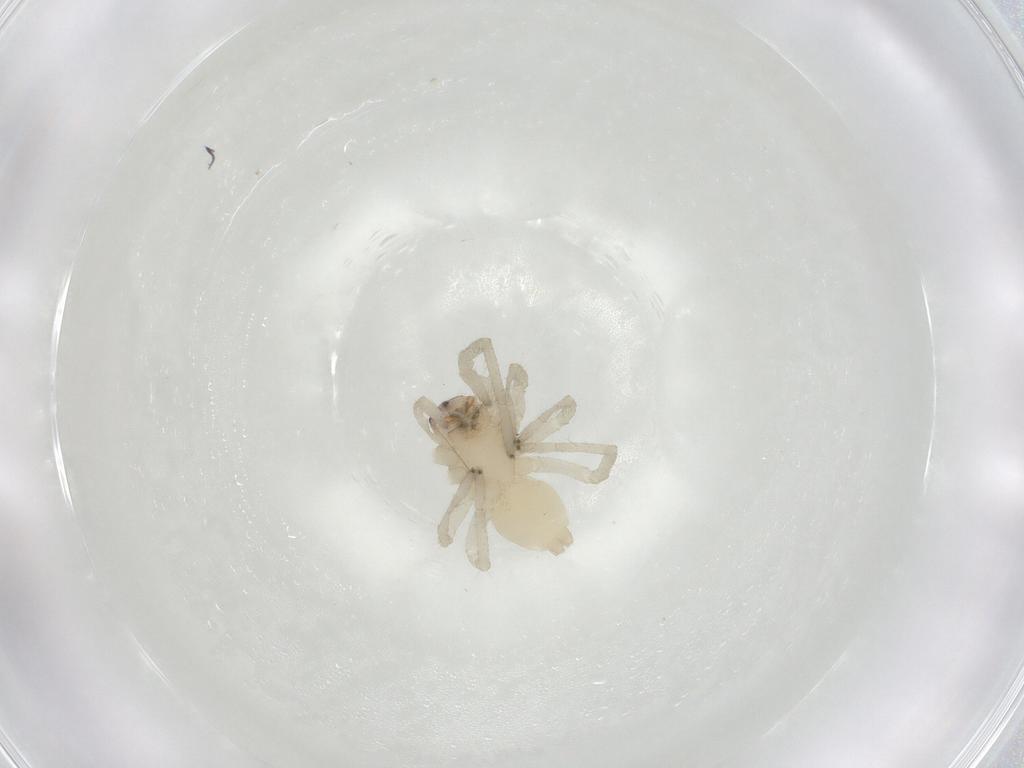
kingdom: Animalia
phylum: Arthropoda
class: Arachnida
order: Araneae
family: Cheiracanthiidae
